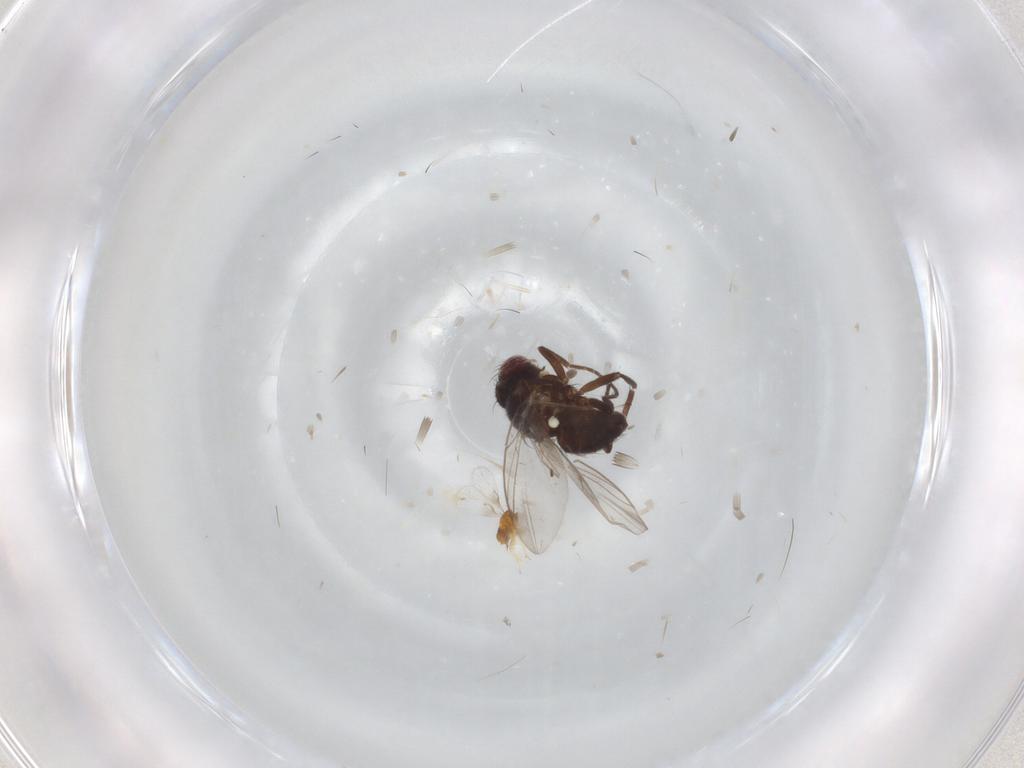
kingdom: Animalia
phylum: Arthropoda
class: Insecta
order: Hymenoptera
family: Trichogrammatidae
